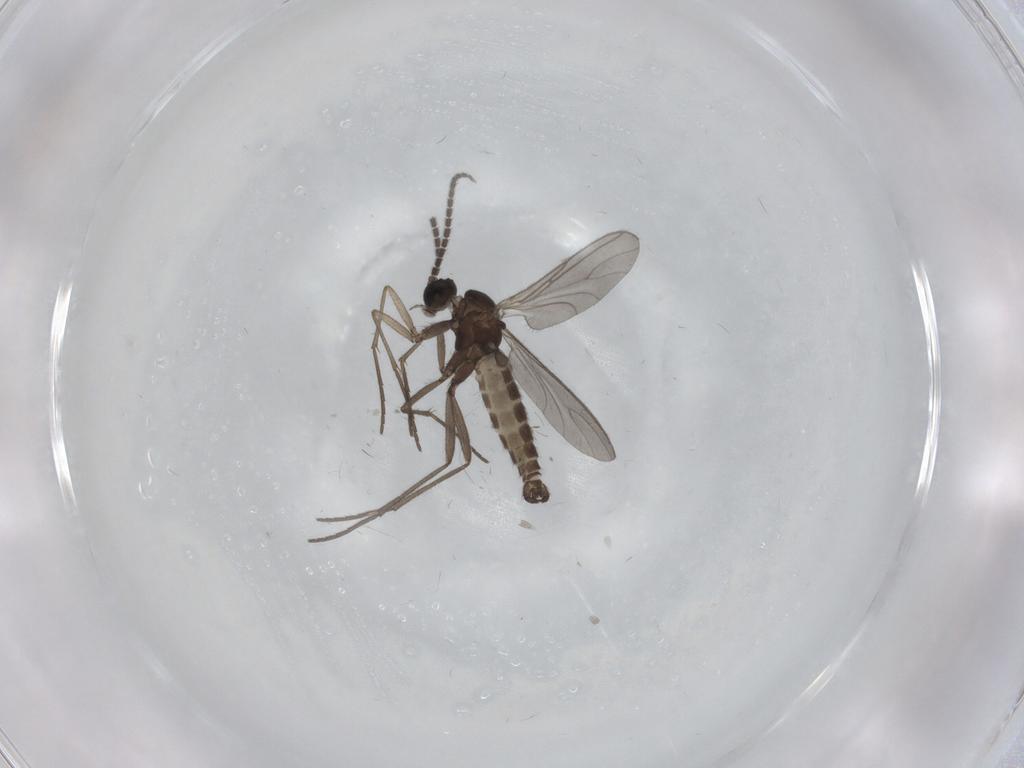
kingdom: Animalia
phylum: Arthropoda
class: Insecta
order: Diptera
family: Sciaridae
